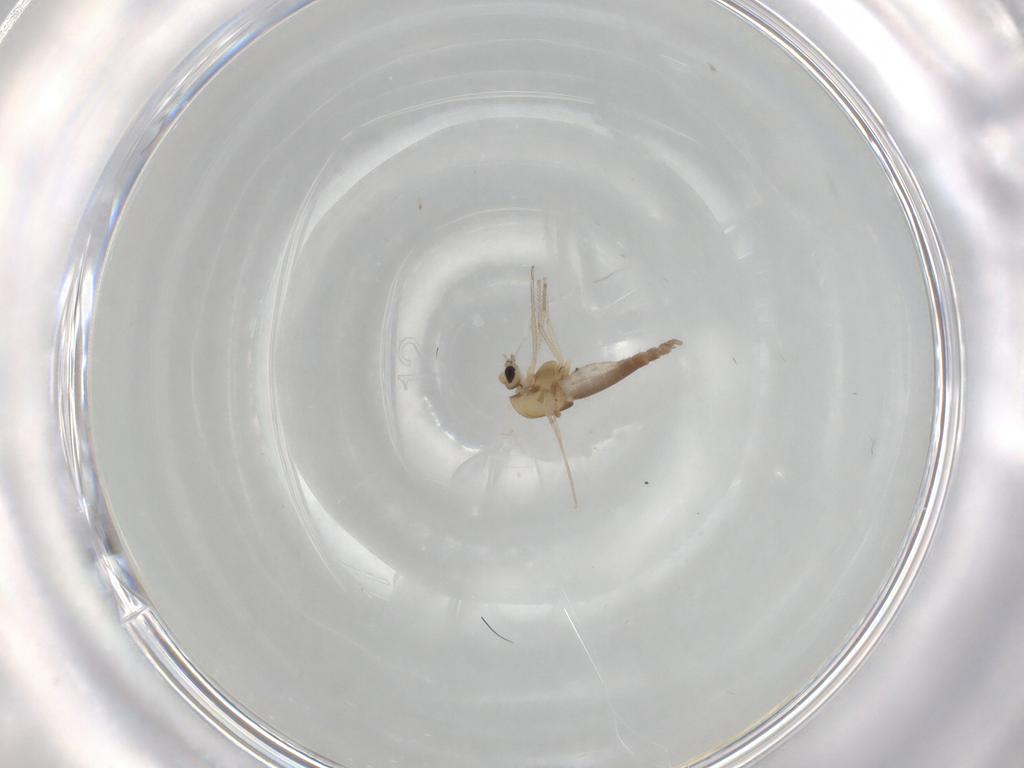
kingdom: Animalia
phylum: Arthropoda
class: Insecta
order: Diptera
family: Chironomidae
